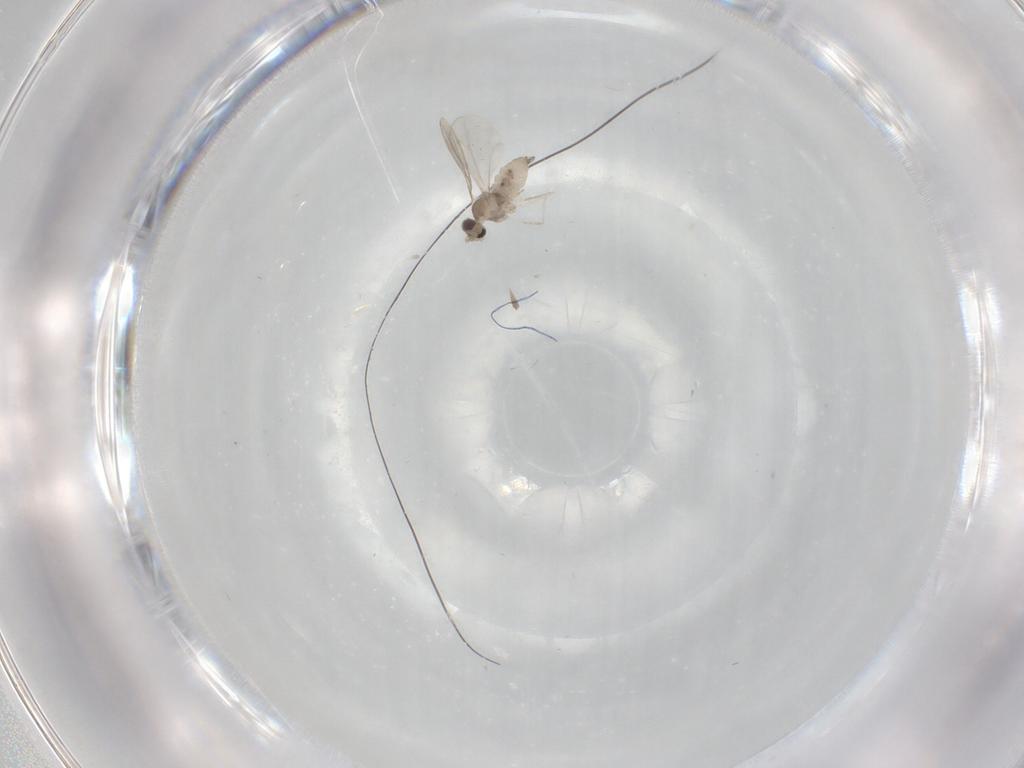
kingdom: Animalia
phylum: Arthropoda
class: Insecta
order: Diptera
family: Cecidomyiidae
